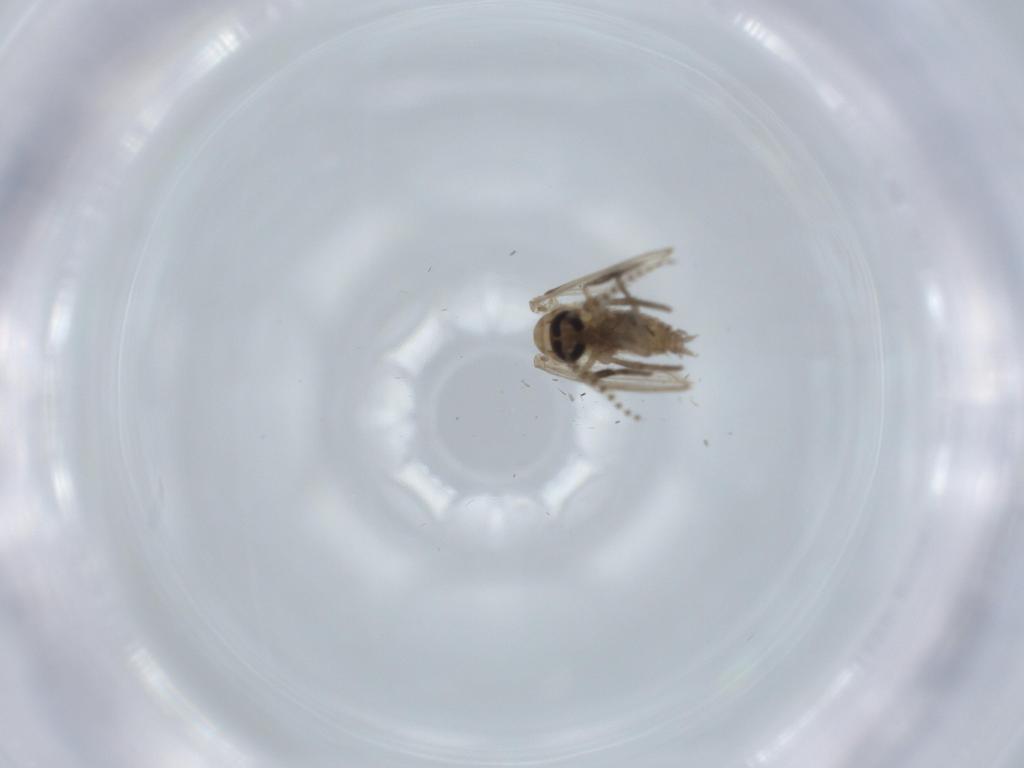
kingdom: Animalia
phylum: Arthropoda
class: Insecta
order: Diptera
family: Psychodidae
